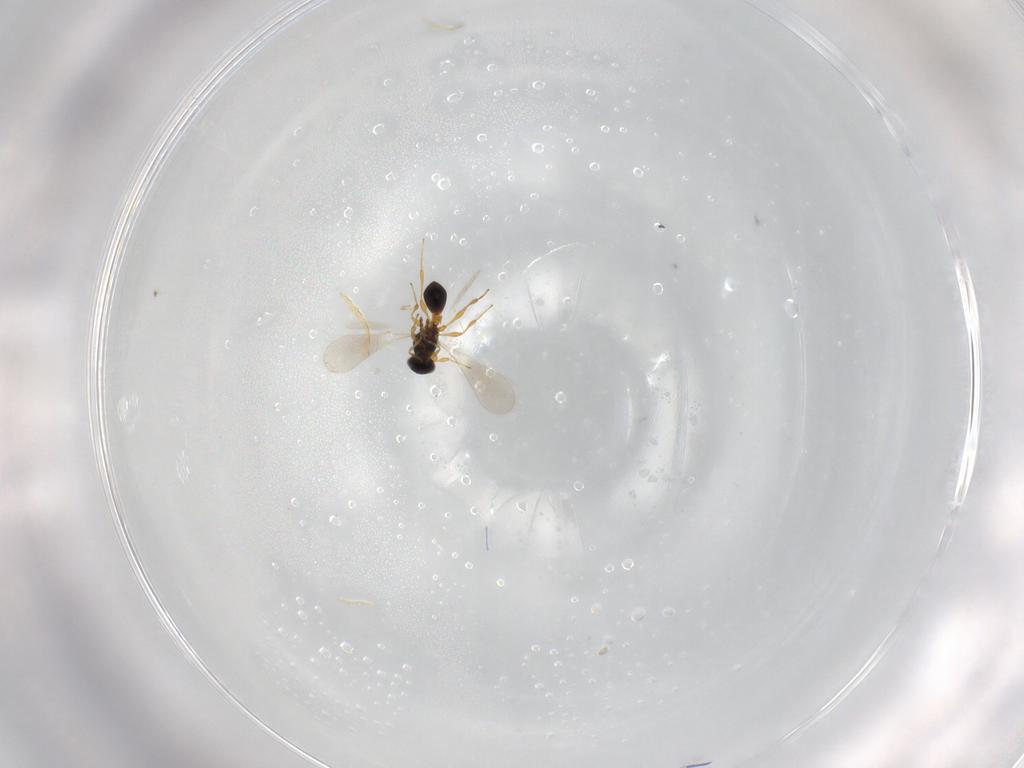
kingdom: Animalia
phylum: Arthropoda
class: Insecta
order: Hymenoptera
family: Platygastridae
